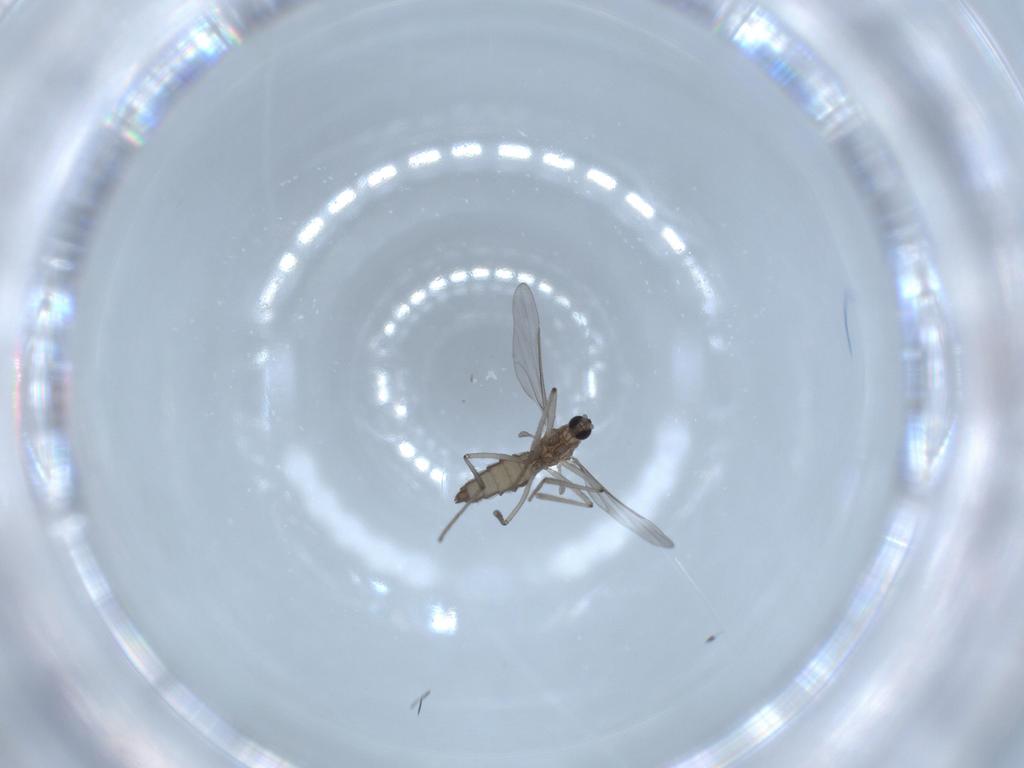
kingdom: Animalia
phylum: Arthropoda
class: Insecta
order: Diptera
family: Cecidomyiidae
